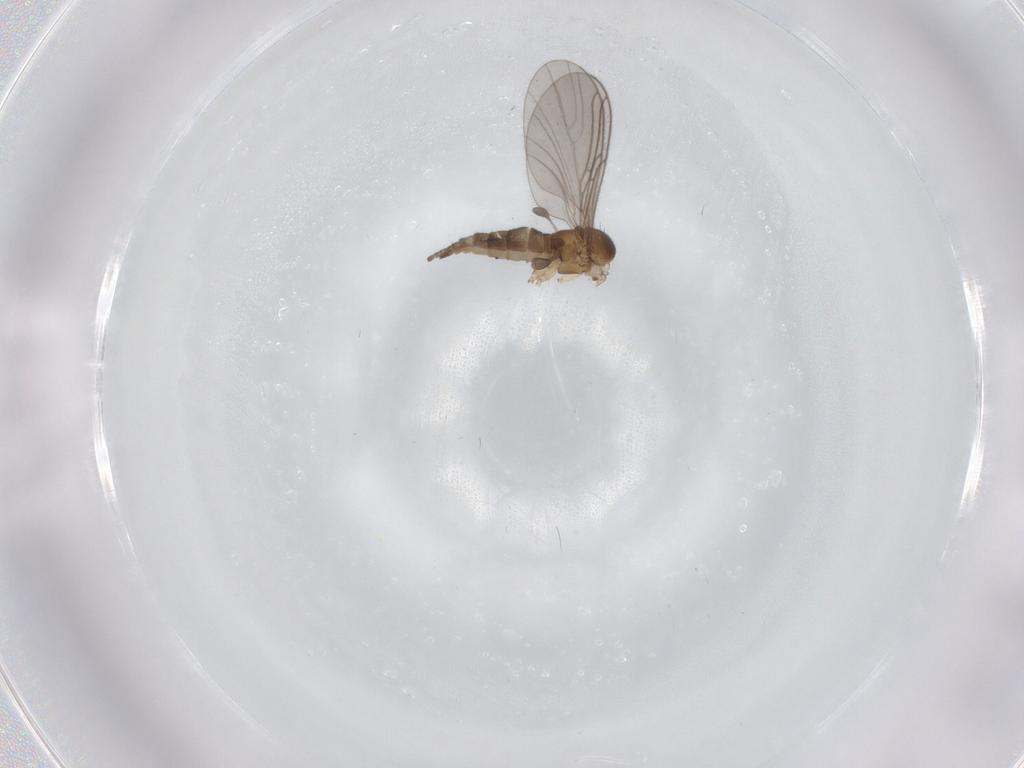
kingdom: Animalia
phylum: Arthropoda
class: Insecta
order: Diptera
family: Sciaridae
